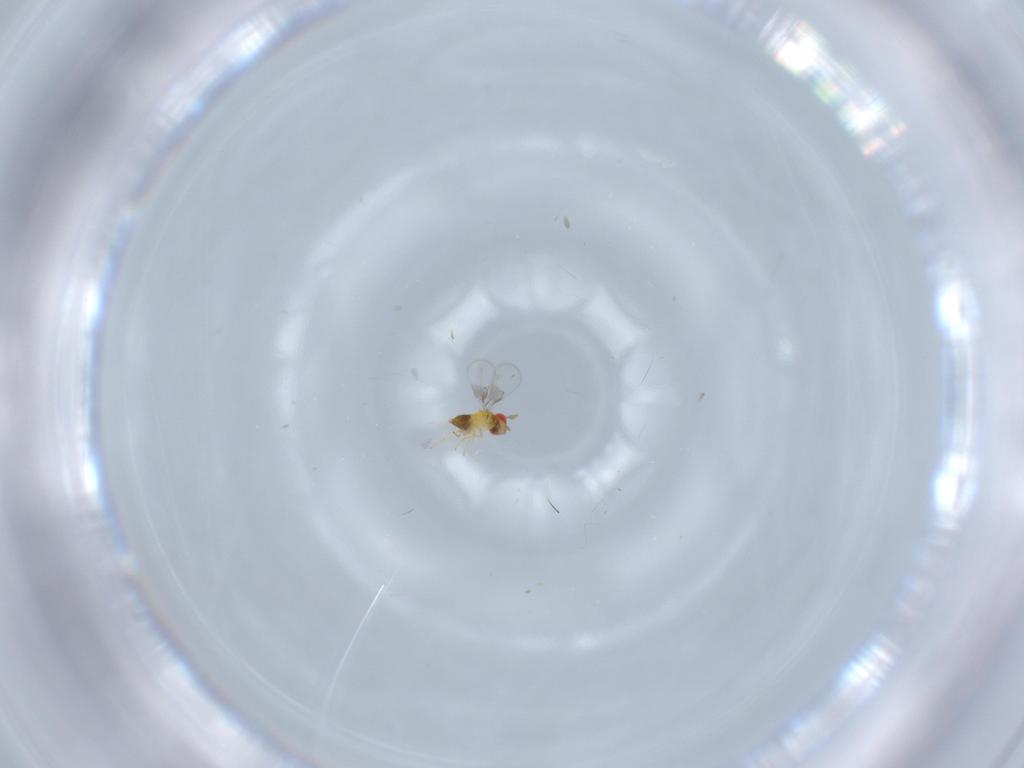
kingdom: Animalia
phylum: Arthropoda
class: Insecta
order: Hymenoptera
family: Trichogrammatidae
